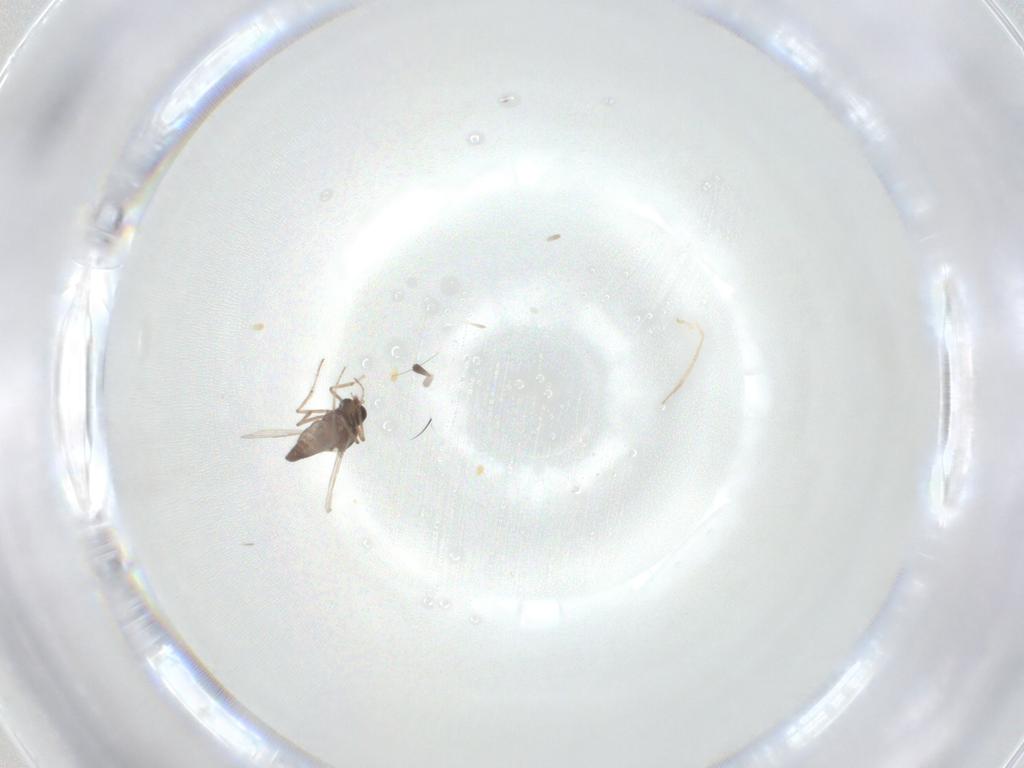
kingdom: Animalia
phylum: Arthropoda
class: Insecta
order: Diptera
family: Ceratopogonidae
